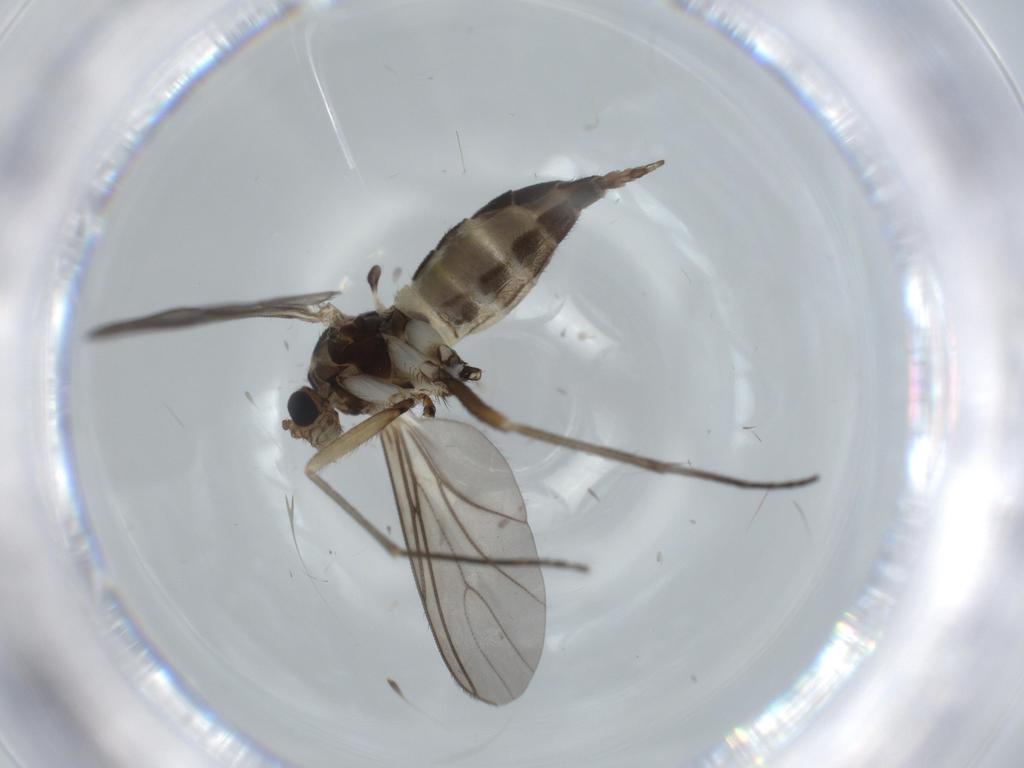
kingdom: Animalia
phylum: Arthropoda
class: Insecta
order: Diptera
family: Sciaridae
